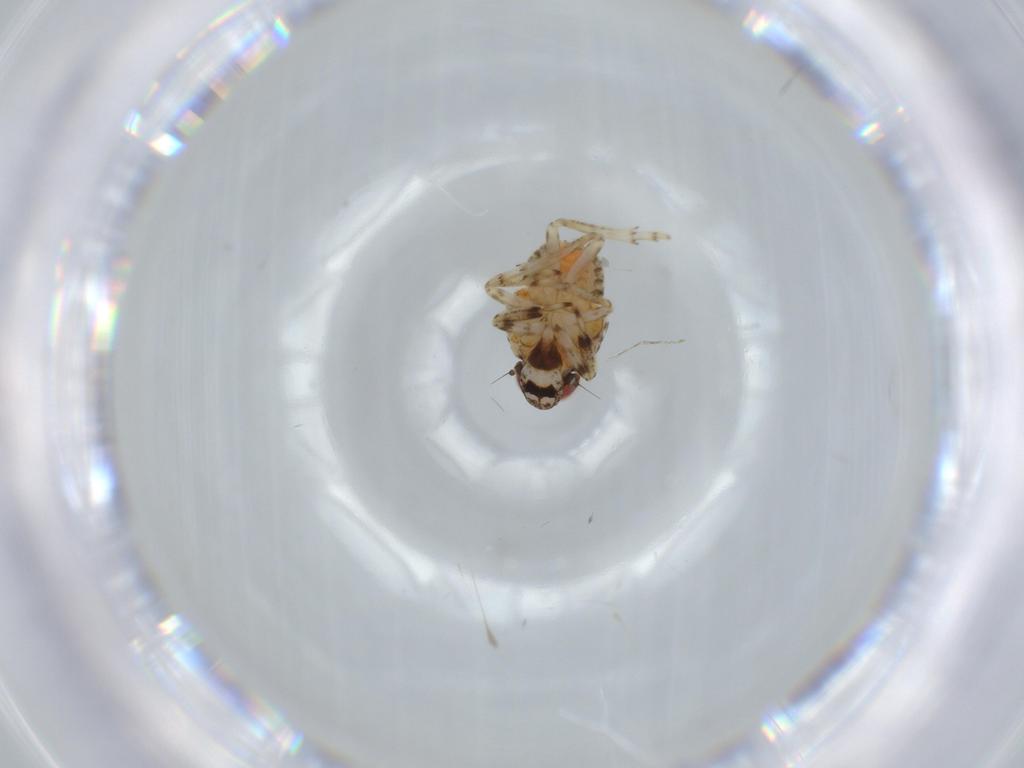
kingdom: Animalia
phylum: Arthropoda
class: Insecta
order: Hemiptera
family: Issidae
